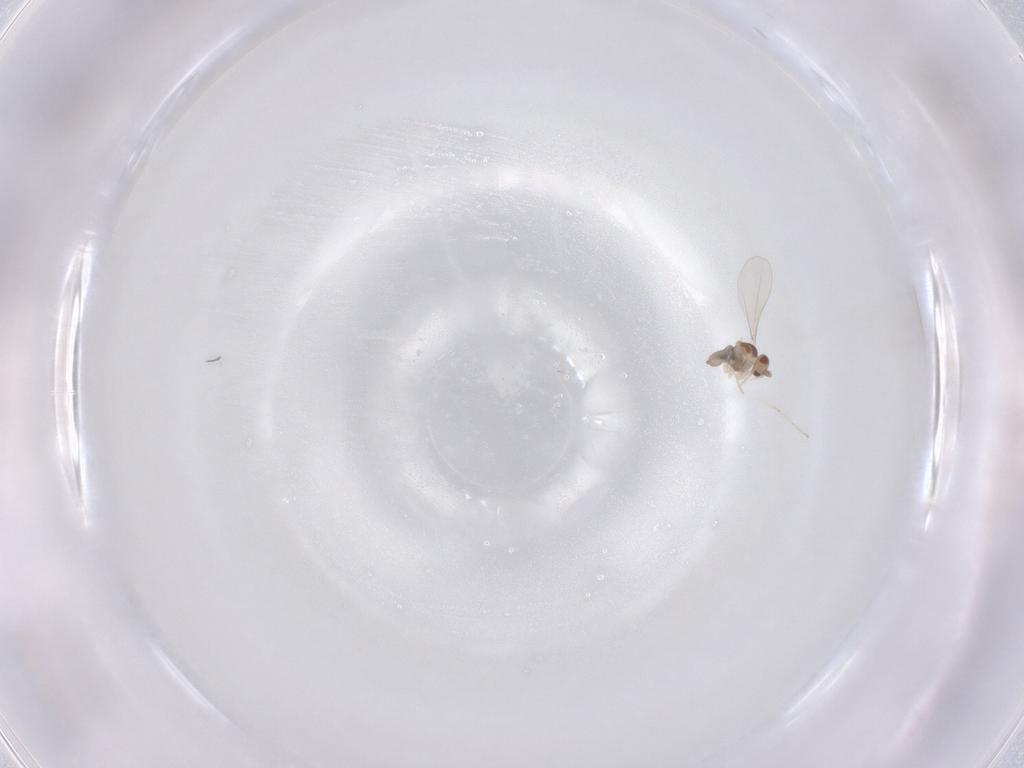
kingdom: Animalia
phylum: Arthropoda
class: Insecta
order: Diptera
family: Cecidomyiidae
